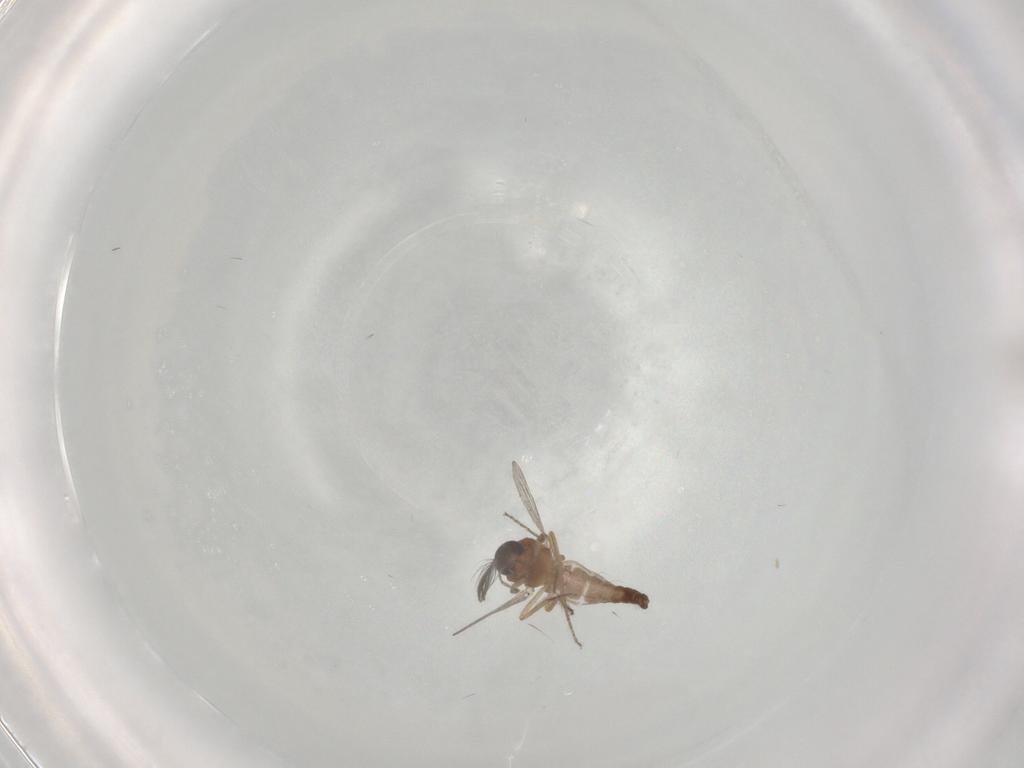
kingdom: Animalia
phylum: Arthropoda
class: Insecta
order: Diptera
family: Ceratopogonidae
